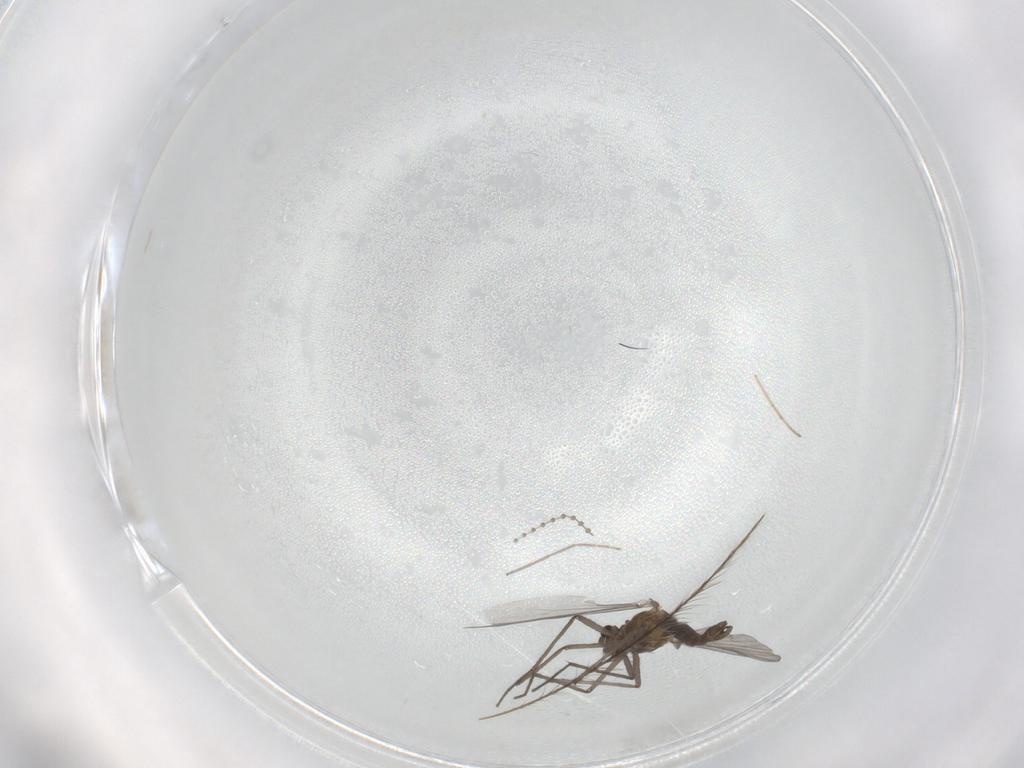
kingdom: Animalia
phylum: Arthropoda
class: Insecta
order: Diptera
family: Chironomidae
